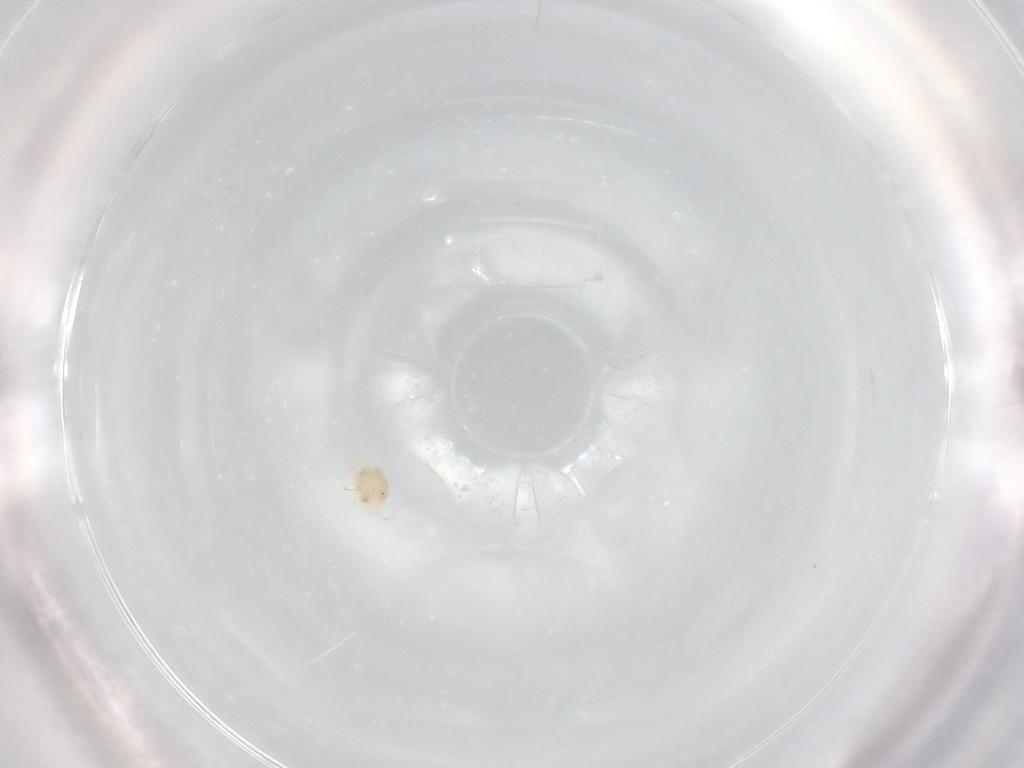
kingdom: Animalia
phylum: Arthropoda
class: Arachnida
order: Trombidiformes
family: Anystidae
